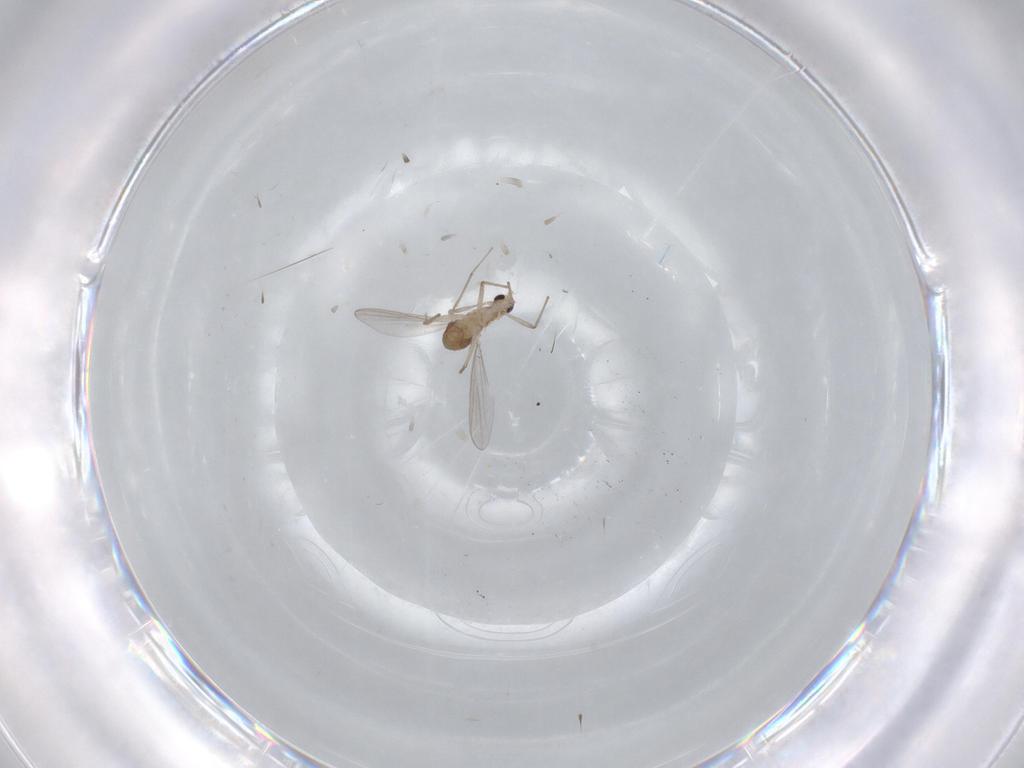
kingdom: Animalia
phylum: Arthropoda
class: Insecta
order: Diptera
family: Chironomidae
